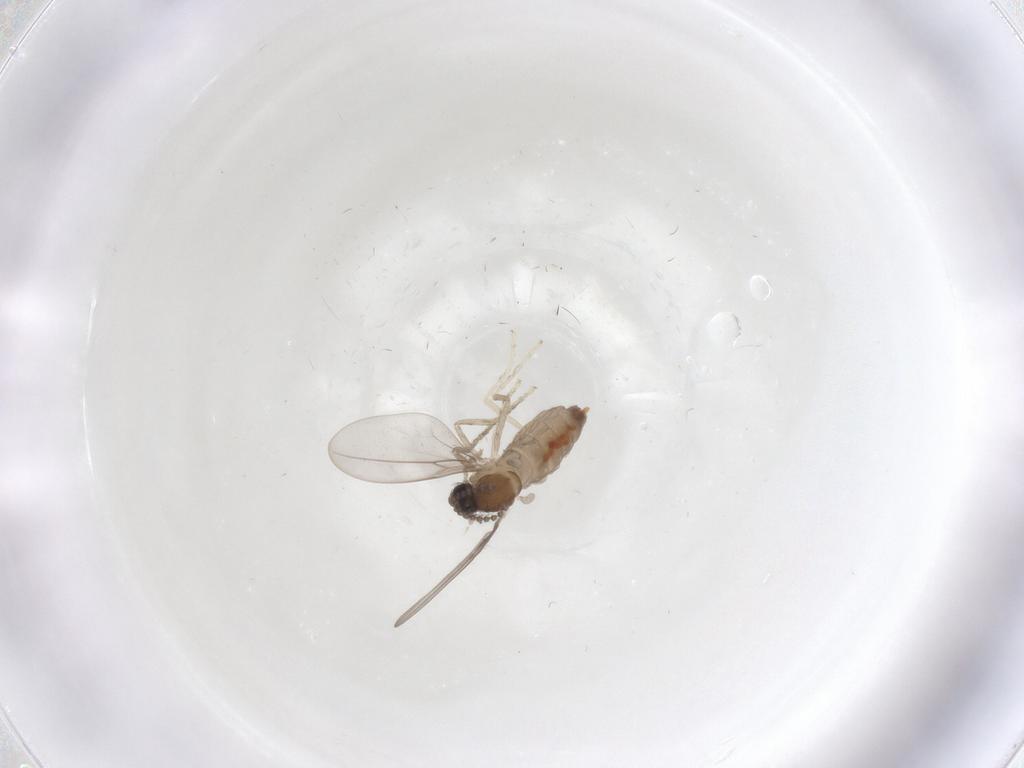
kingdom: Animalia
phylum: Arthropoda
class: Insecta
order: Diptera
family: Cecidomyiidae
